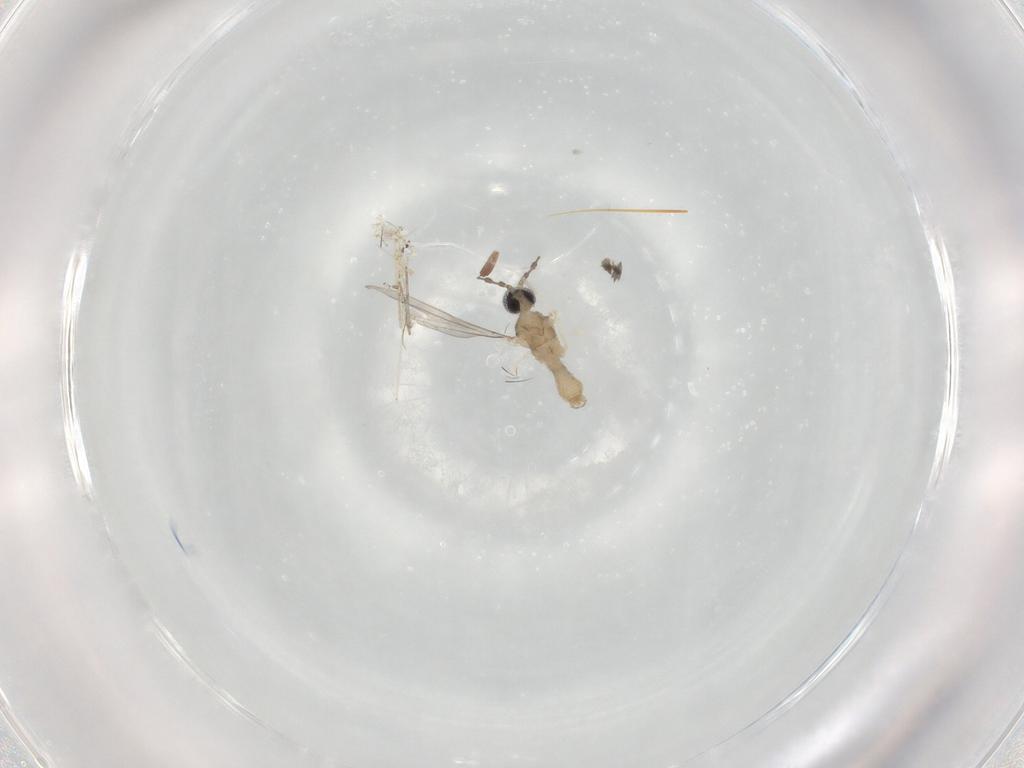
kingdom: Animalia
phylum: Arthropoda
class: Insecta
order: Diptera
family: Cecidomyiidae
